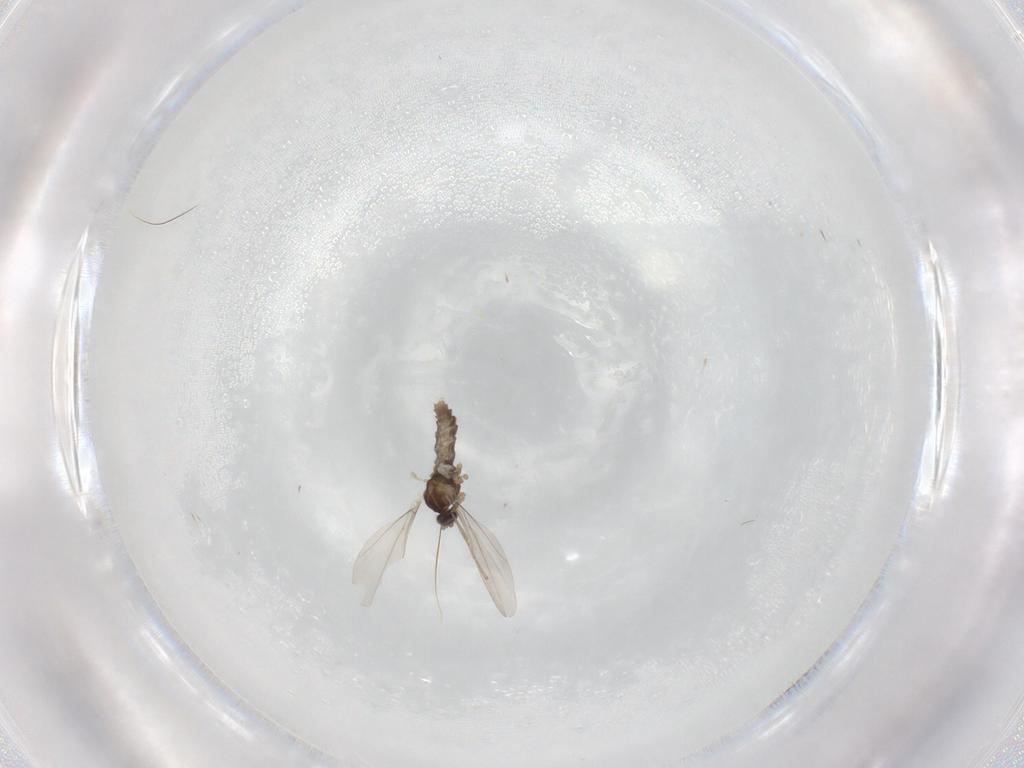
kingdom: Animalia
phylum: Arthropoda
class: Insecta
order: Diptera
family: Cecidomyiidae
